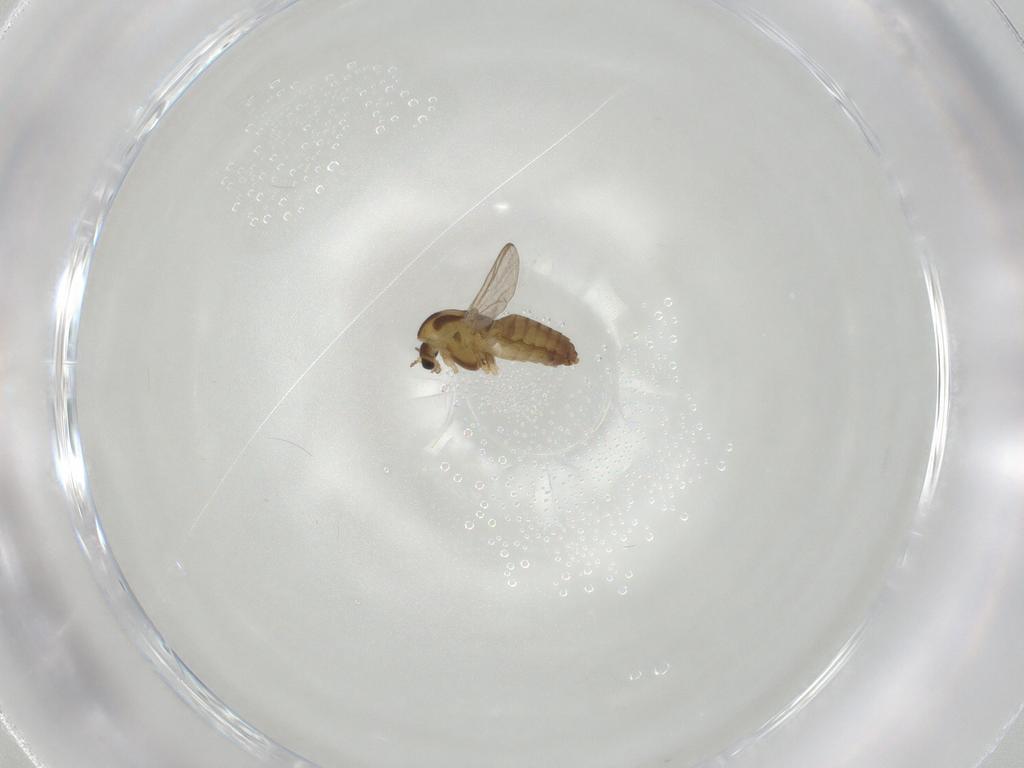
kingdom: Animalia
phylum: Arthropoda
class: Insecta
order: Diptera
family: Chironomidae
